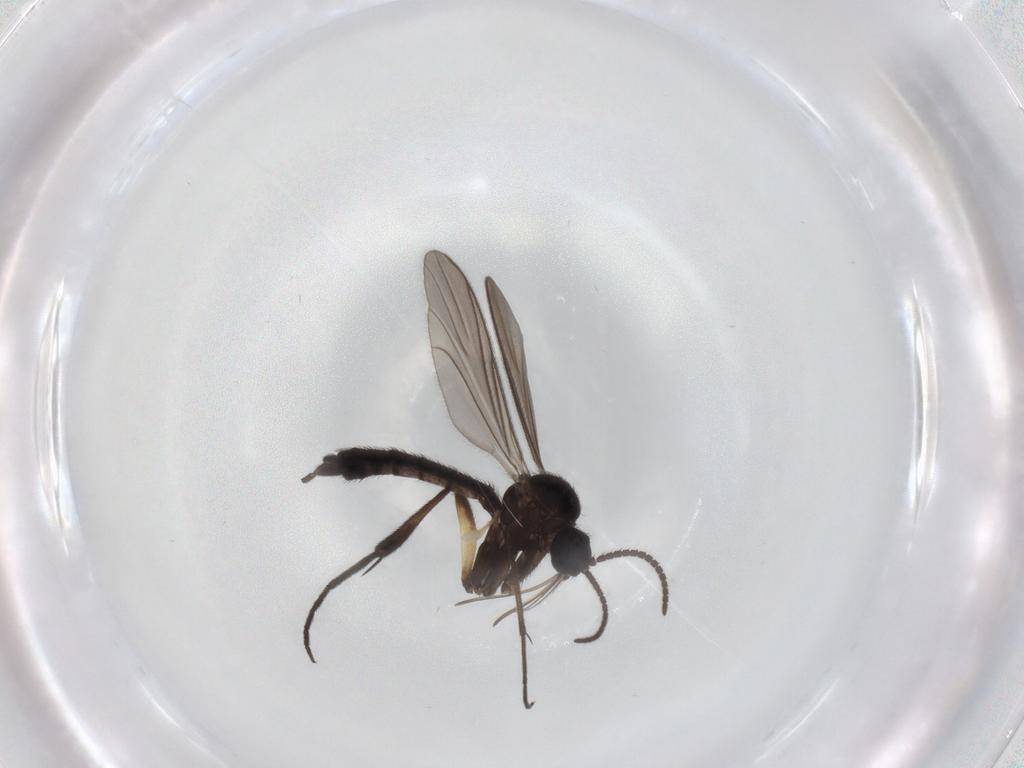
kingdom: Animalia
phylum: Arthropoda
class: Insecta
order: Diptera
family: Keroplatidae
